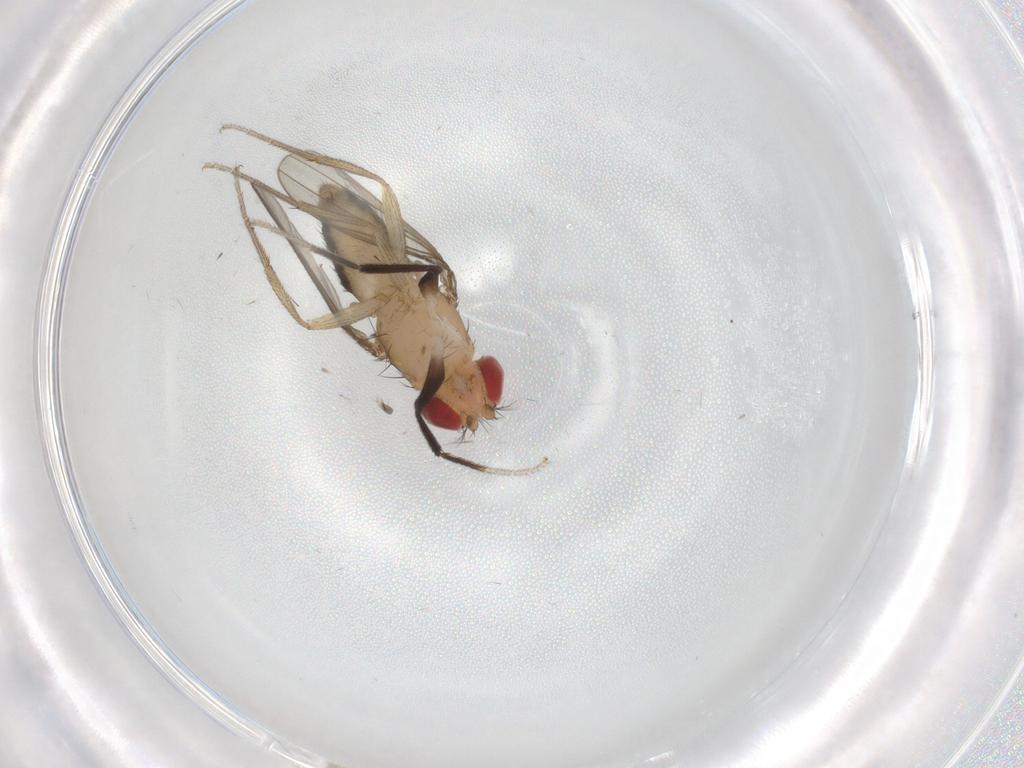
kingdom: Animalia
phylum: Arthropoda
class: Insecta
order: Diptera
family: Drosophilidae
